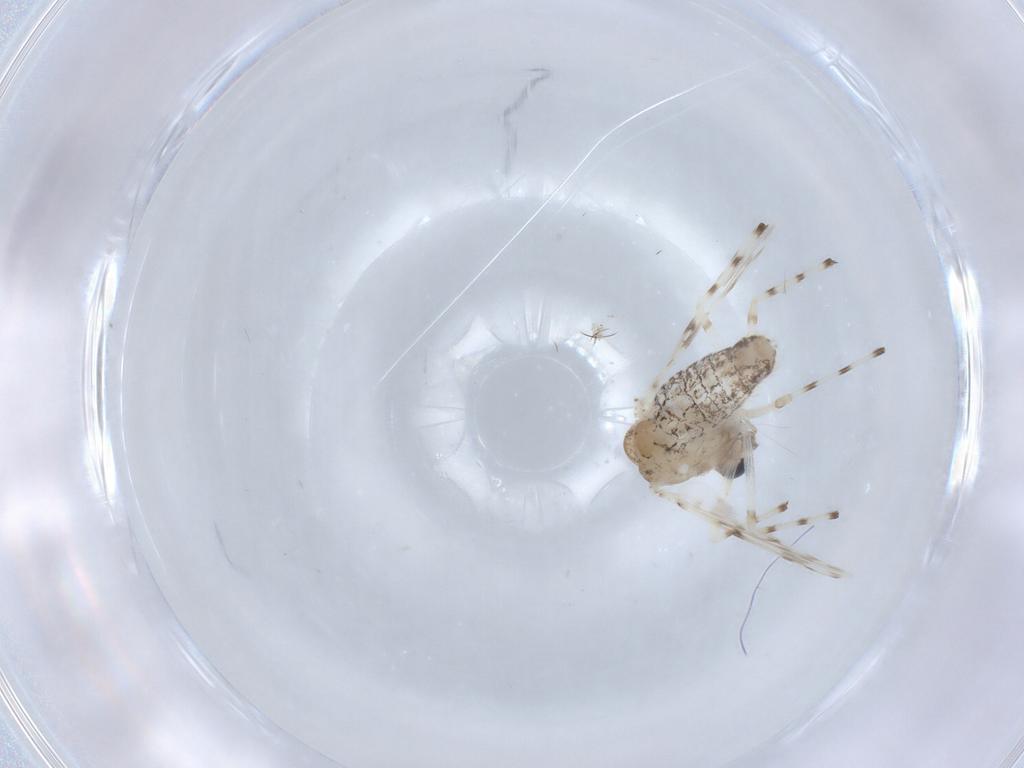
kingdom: Animalia
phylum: Arthropoda
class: Insecta
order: Diptera
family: Chironomidae
